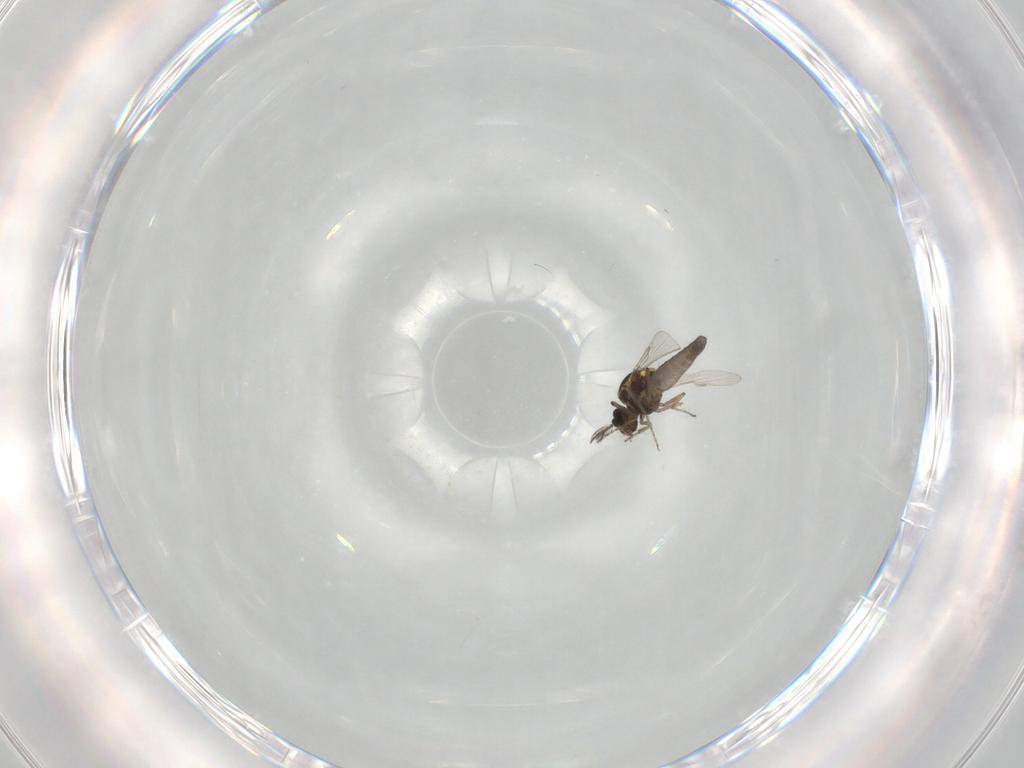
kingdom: Animalia
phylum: Arthropoda
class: Insecta
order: Diptera
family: Ceratopogonidae
